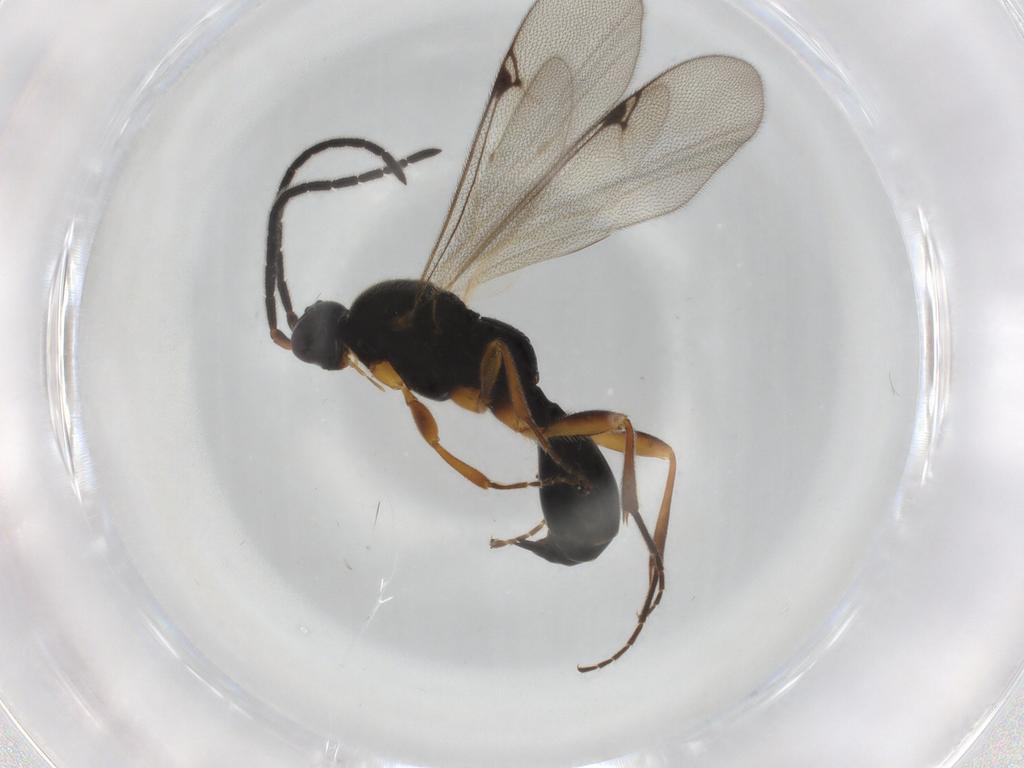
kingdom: Animalia
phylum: Arthropoda
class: Insecta
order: Hymenoptera
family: Proctotrupidae
